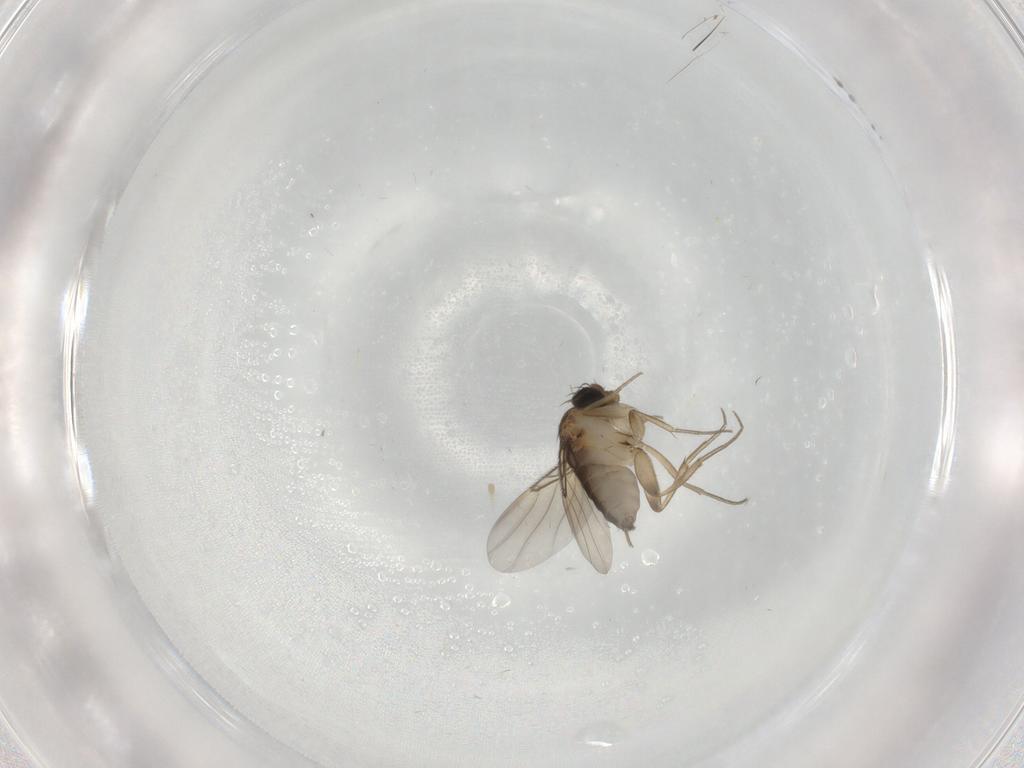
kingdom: Animalia
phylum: Arthropoda
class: Insecta
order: Diptera
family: Phoridae
